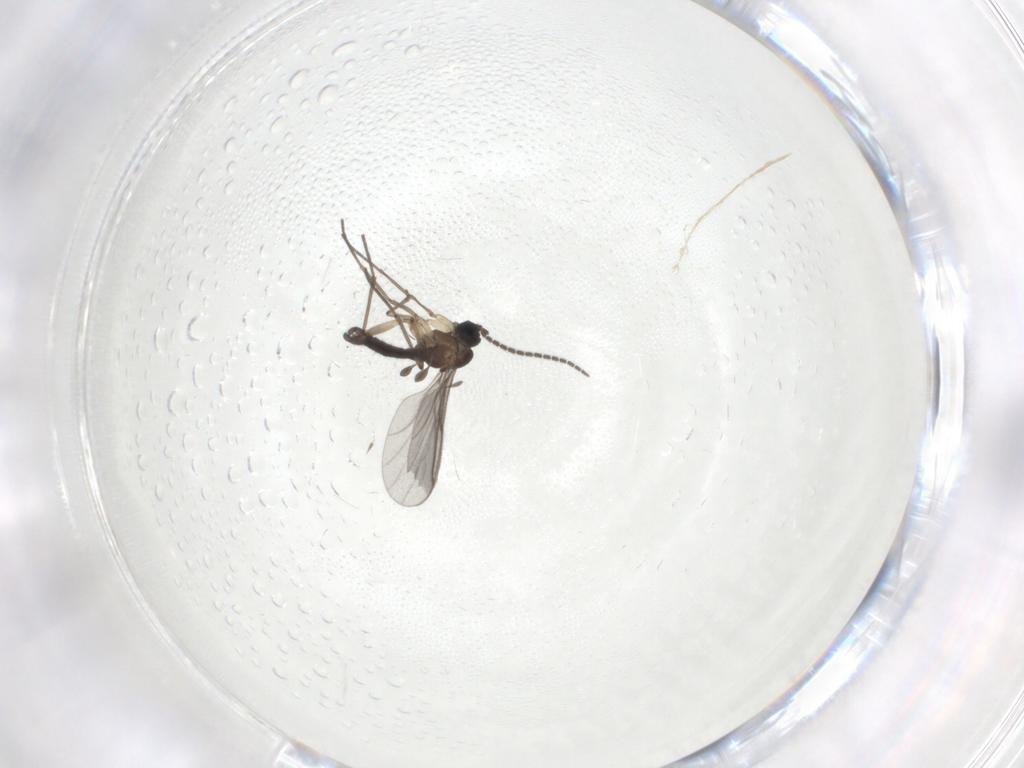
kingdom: Animalia
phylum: Arthropoda
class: Insecta
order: Diptera
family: Sciaridae
